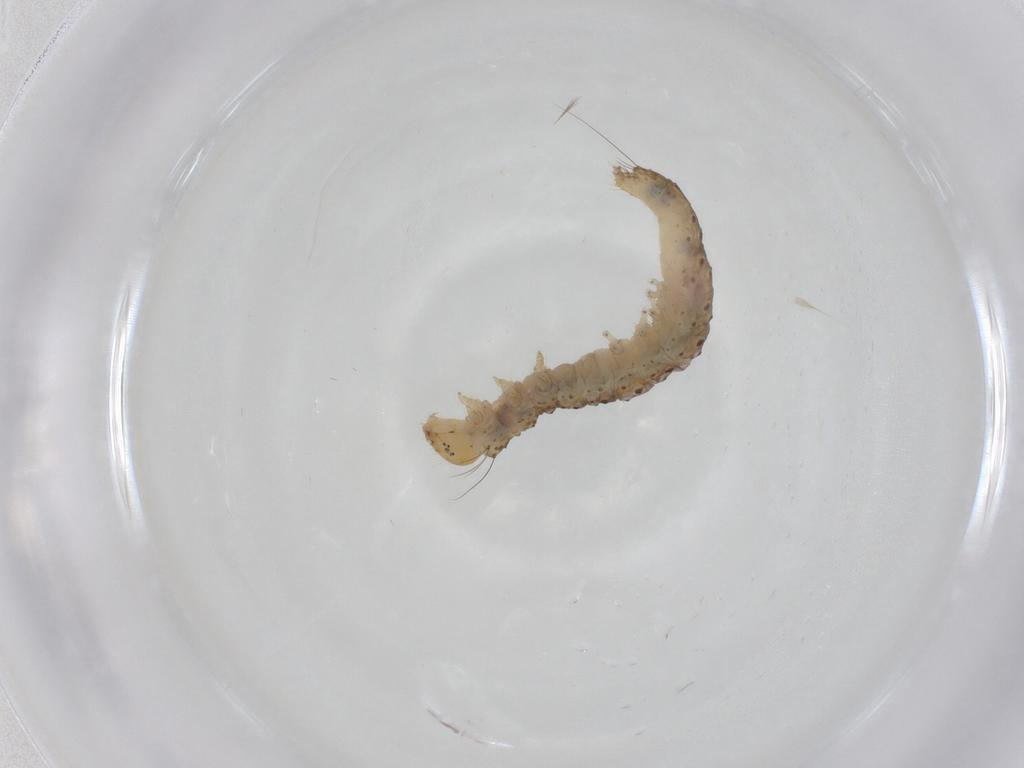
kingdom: Animalia
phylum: Arthropoda
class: Insecta
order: Lepidoptera
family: Immidae
